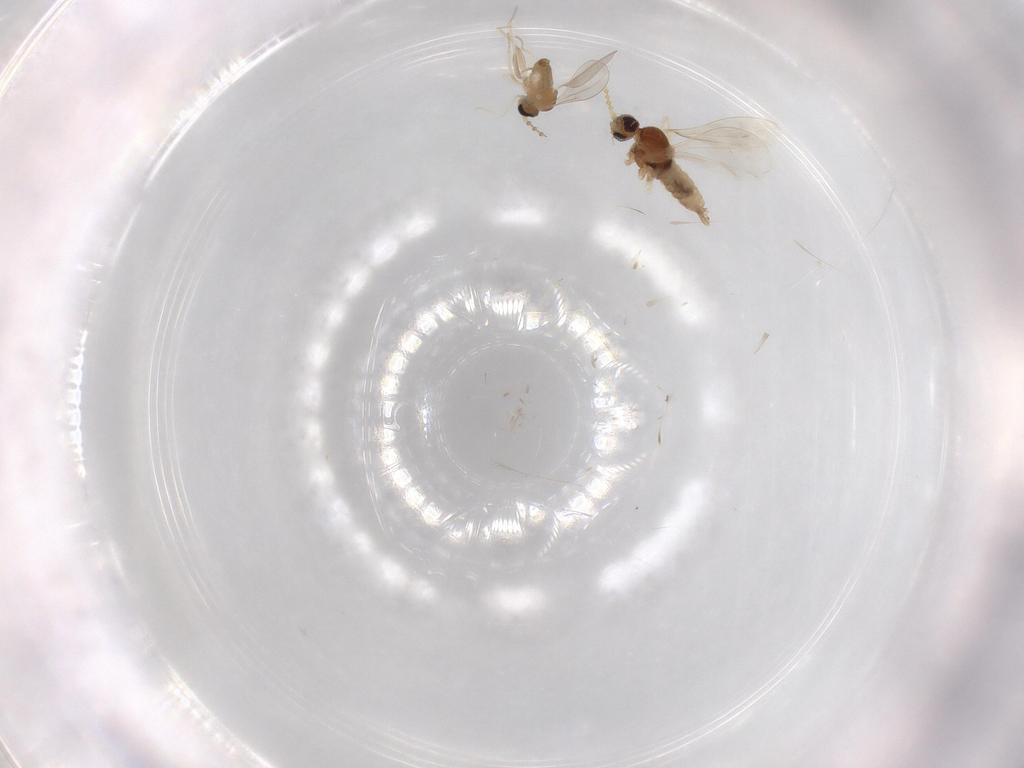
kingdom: Animalia
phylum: Arthropoda
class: Insecta
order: Diptera
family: Cecidomyiidae
